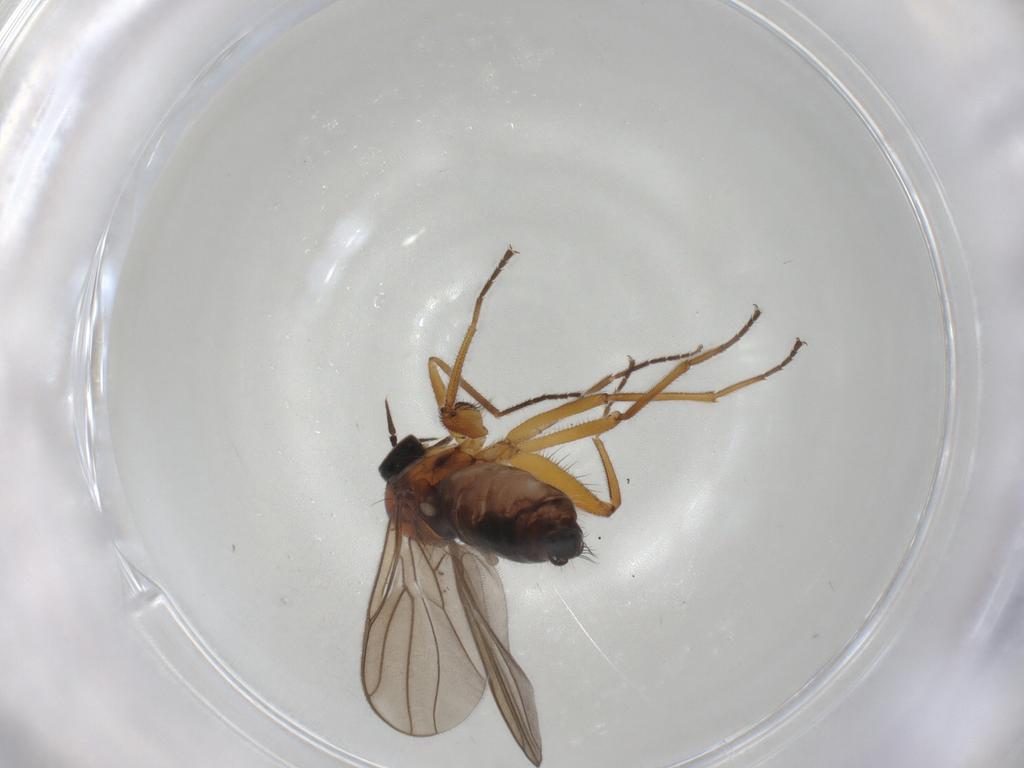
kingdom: Animalia
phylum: Arthropoda
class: Insecta
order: Diptera
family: Hybotidae
